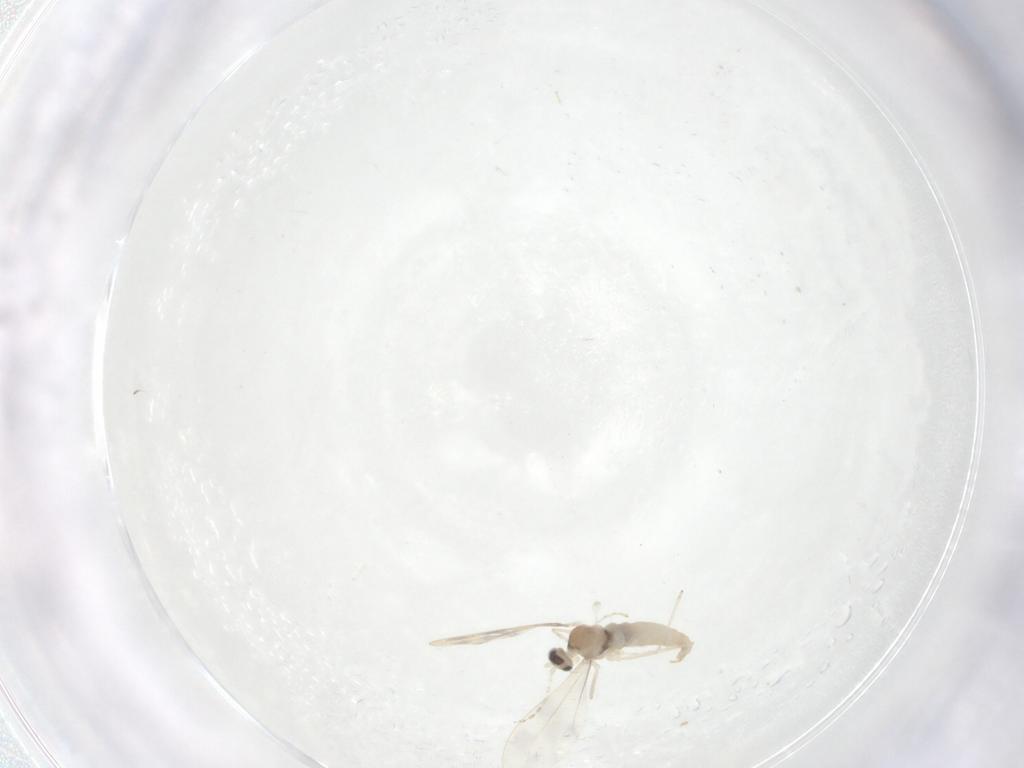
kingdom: Animalia
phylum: Arthropoda
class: Insecta
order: Diptera
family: Cecidomyiidae
